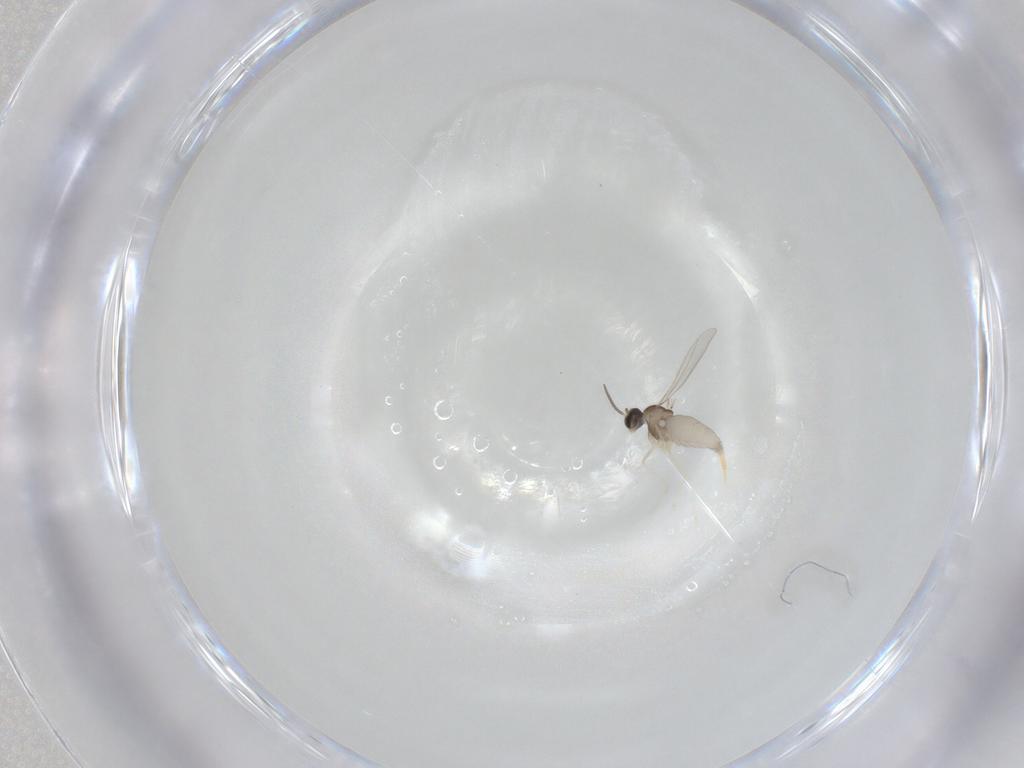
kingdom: Animalia
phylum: Arthropoda
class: Insecta
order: Diptera
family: Cecidomyiidae
